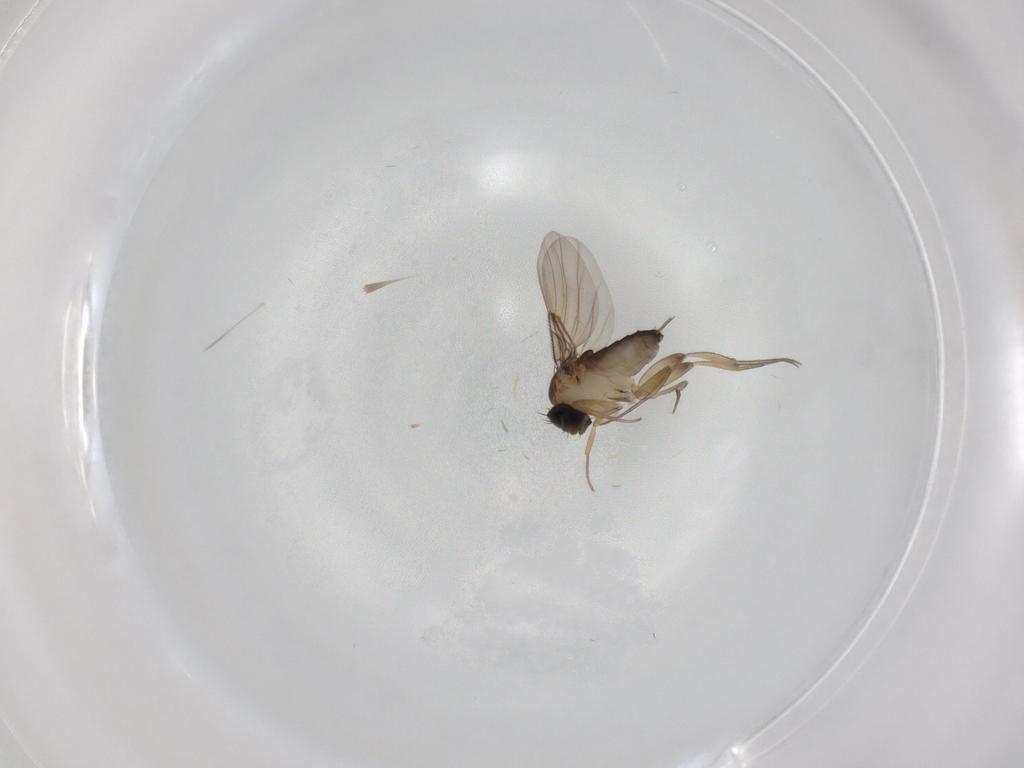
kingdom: Animalia
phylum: Arthropoda
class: Insecta
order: Diptera
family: Phoridae
